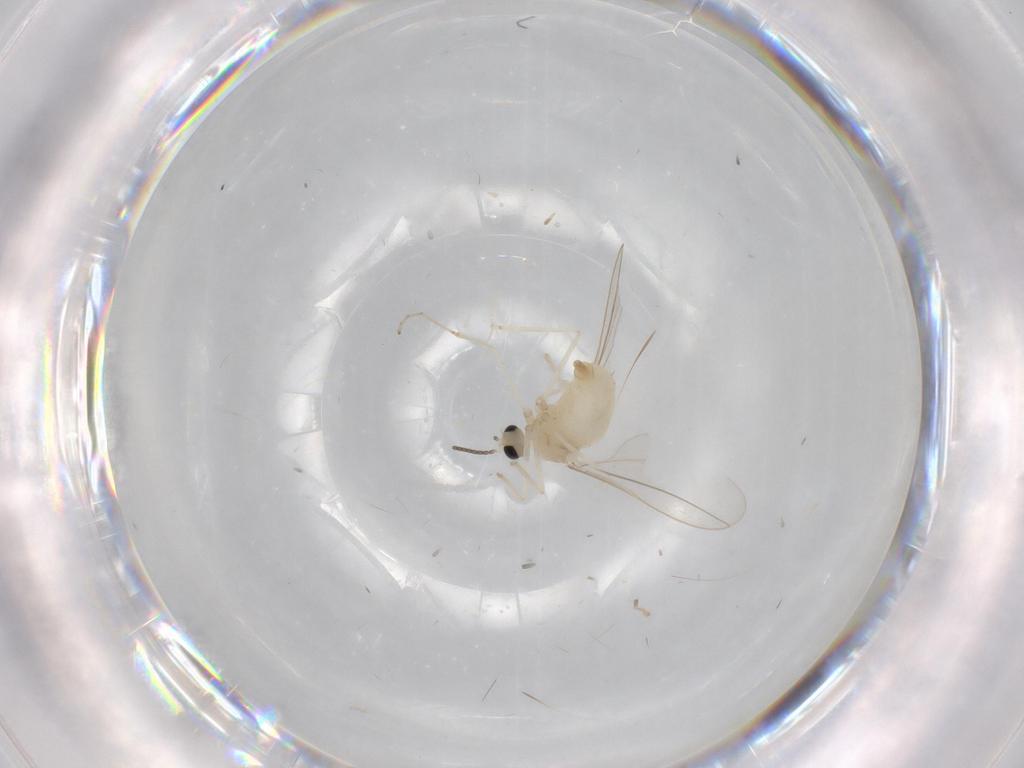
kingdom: Animalia
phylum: Arthropoda
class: Insecta
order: Diptera
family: Cecidomyiidae
